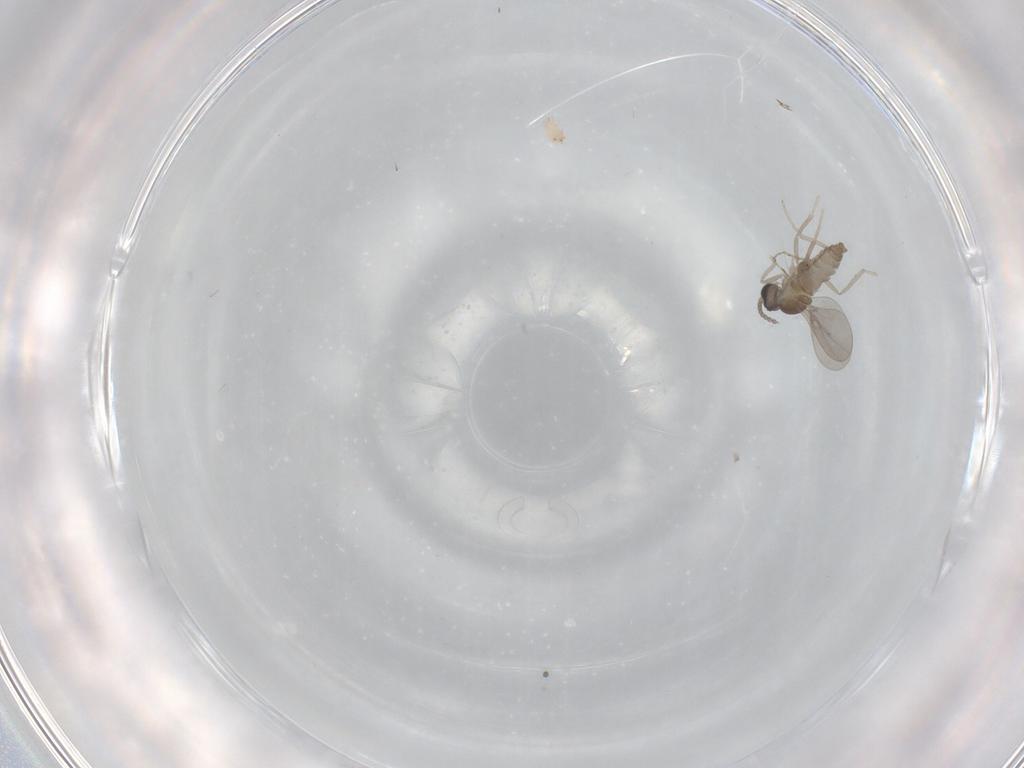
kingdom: Animalia
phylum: Arthropoda
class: Insecta
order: Diptera
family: Cecidomyiidae
